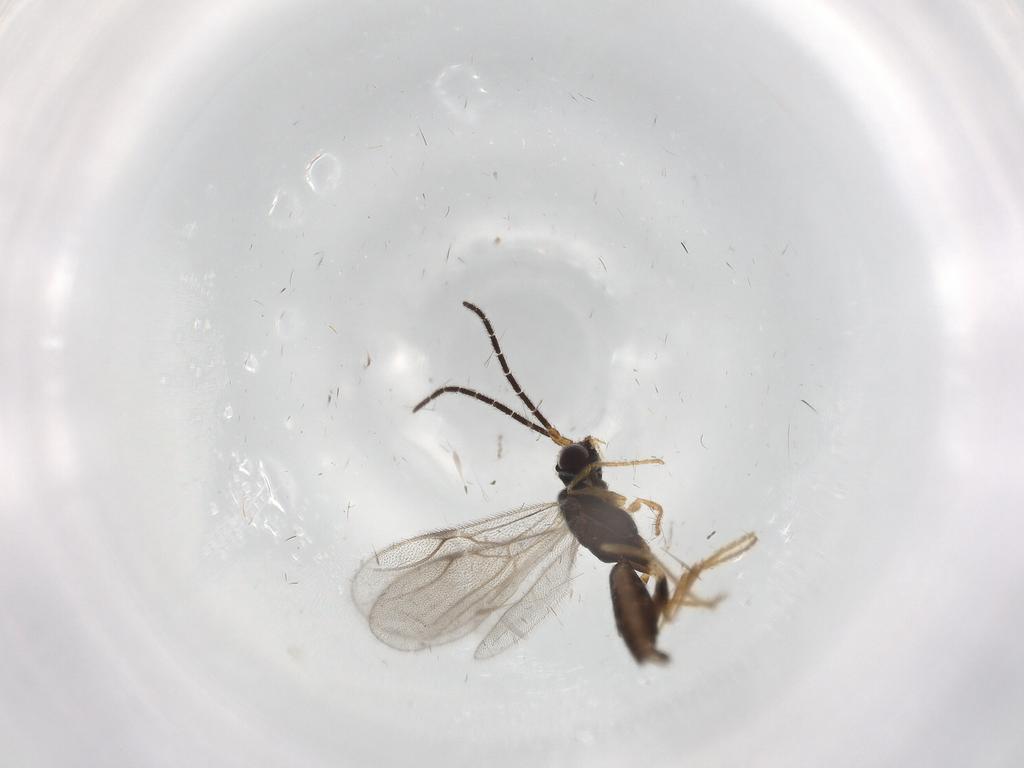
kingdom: Animalia
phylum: Arthropoda
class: Insecta
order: Hymenoptera
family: Dryinidae
